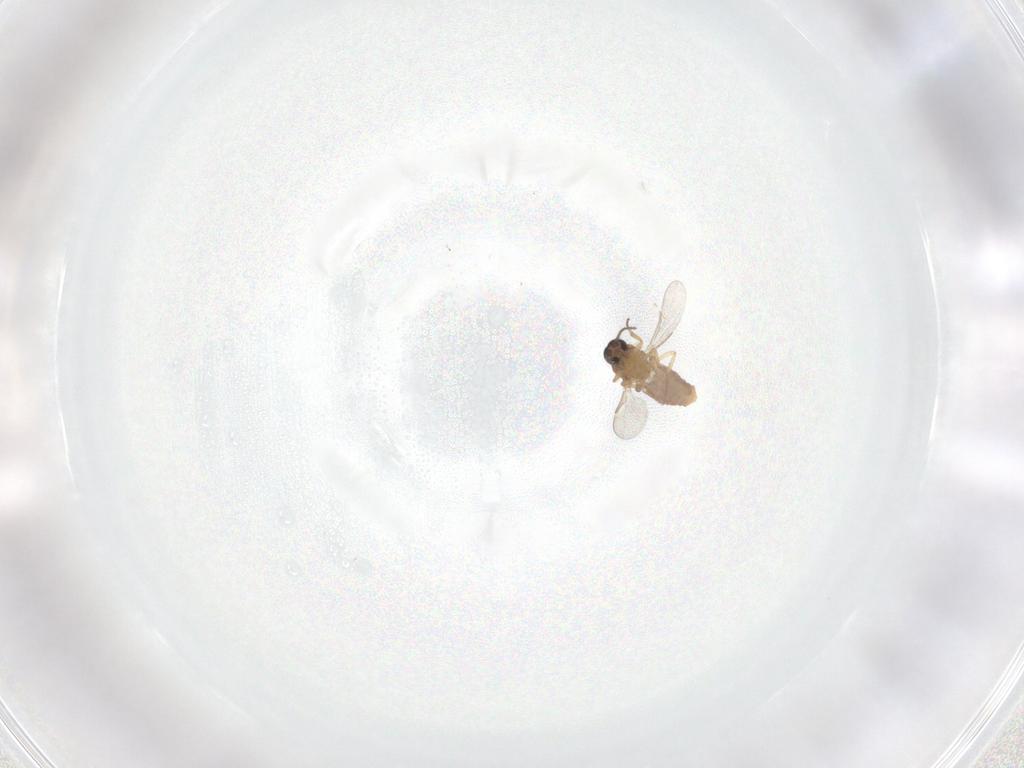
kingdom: Animalia
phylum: Arthropoda
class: Insecta
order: Diptera
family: Ceratopogonidae
